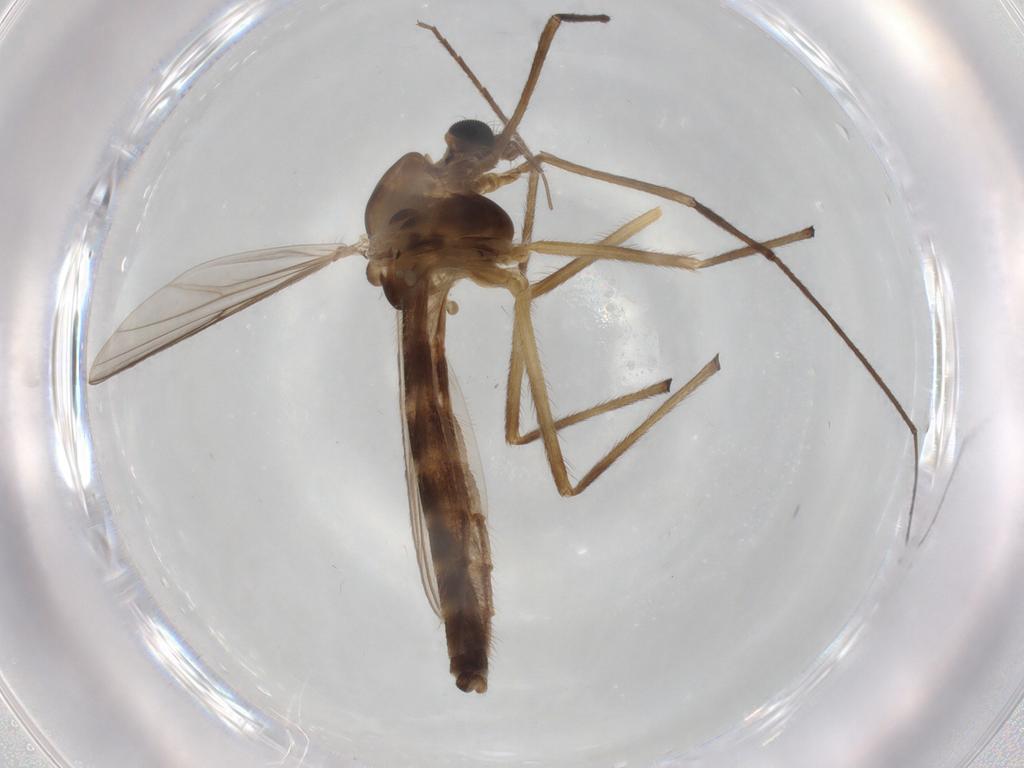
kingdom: Animalia
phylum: Arthropoda
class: Insecta
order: Diptera
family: Chironomidae
